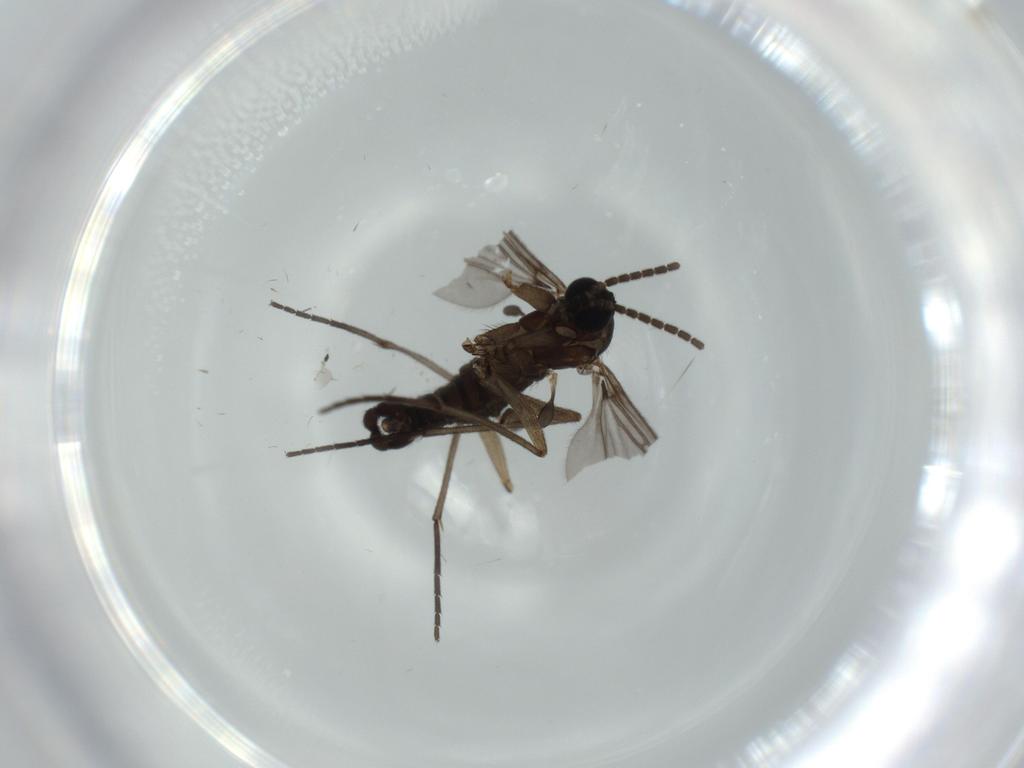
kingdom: Animalia
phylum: Arthropoda
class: Insecta
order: Diptera
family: Sciaridae
